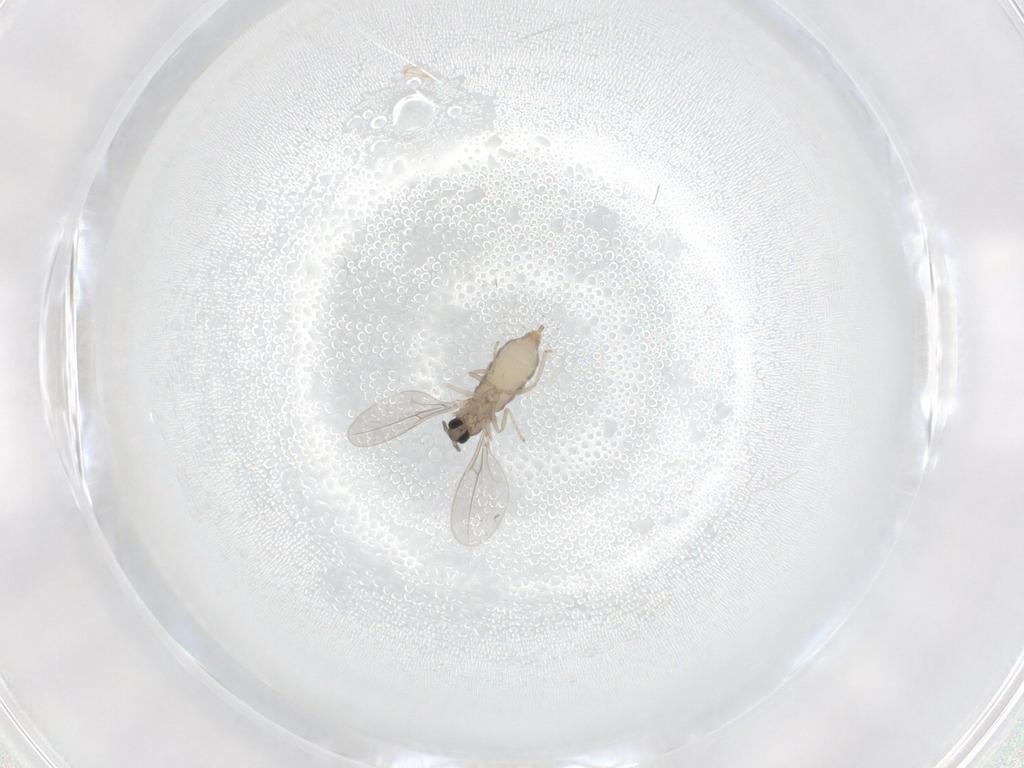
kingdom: Animalia
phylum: Arthropoda
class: Insecta
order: Diptera
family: Cecidomyiidae
